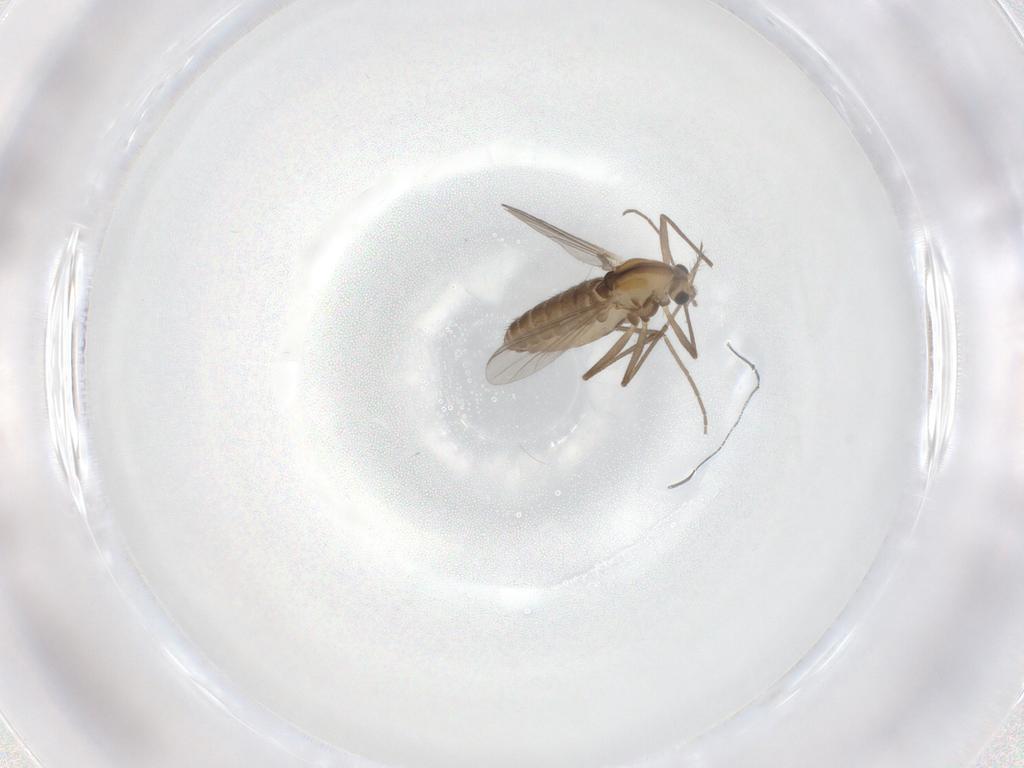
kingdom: Animalia
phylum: Arthropoda
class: Insecta
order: Diptera
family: Chironomidae
